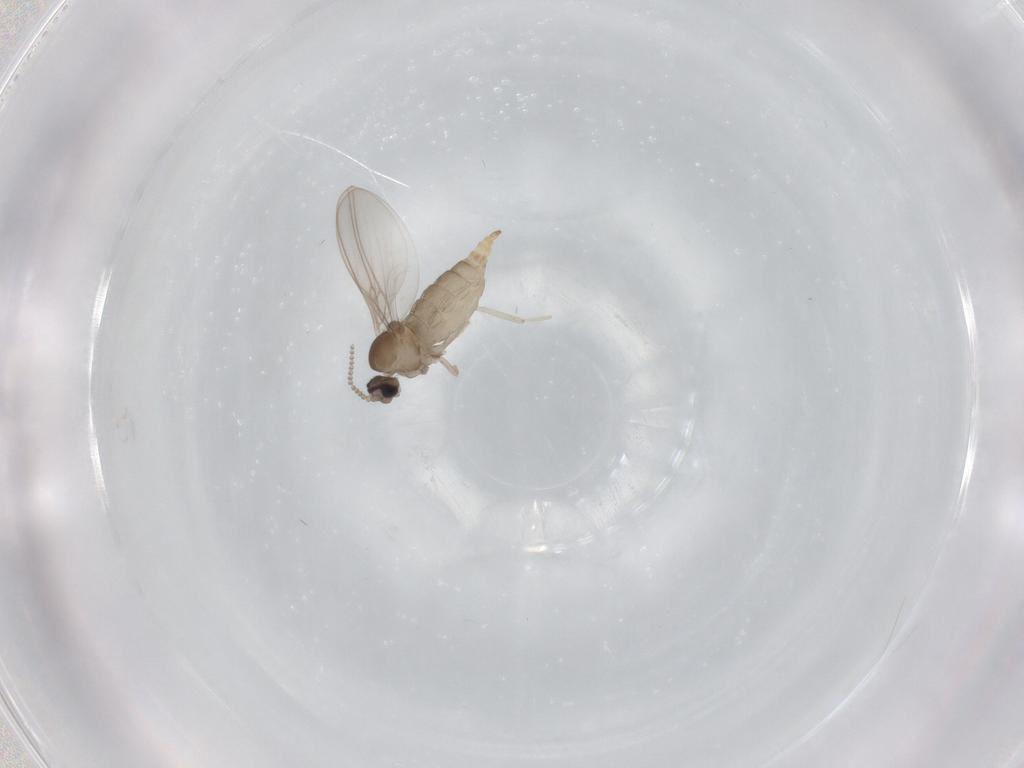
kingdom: Animalia
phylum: Arthropoda
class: Insecta
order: Diptera
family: Cecidomyiidae
